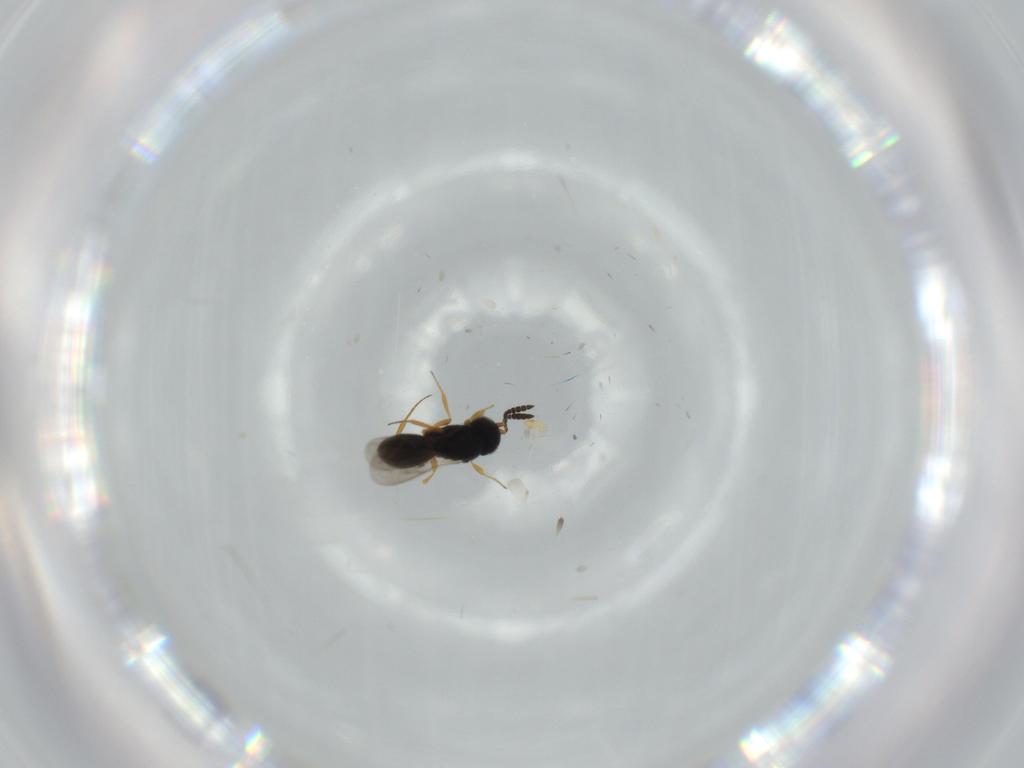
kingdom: Animalia
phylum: Arthropoda
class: Insecta
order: Hymenoptera
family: Scelionidae
